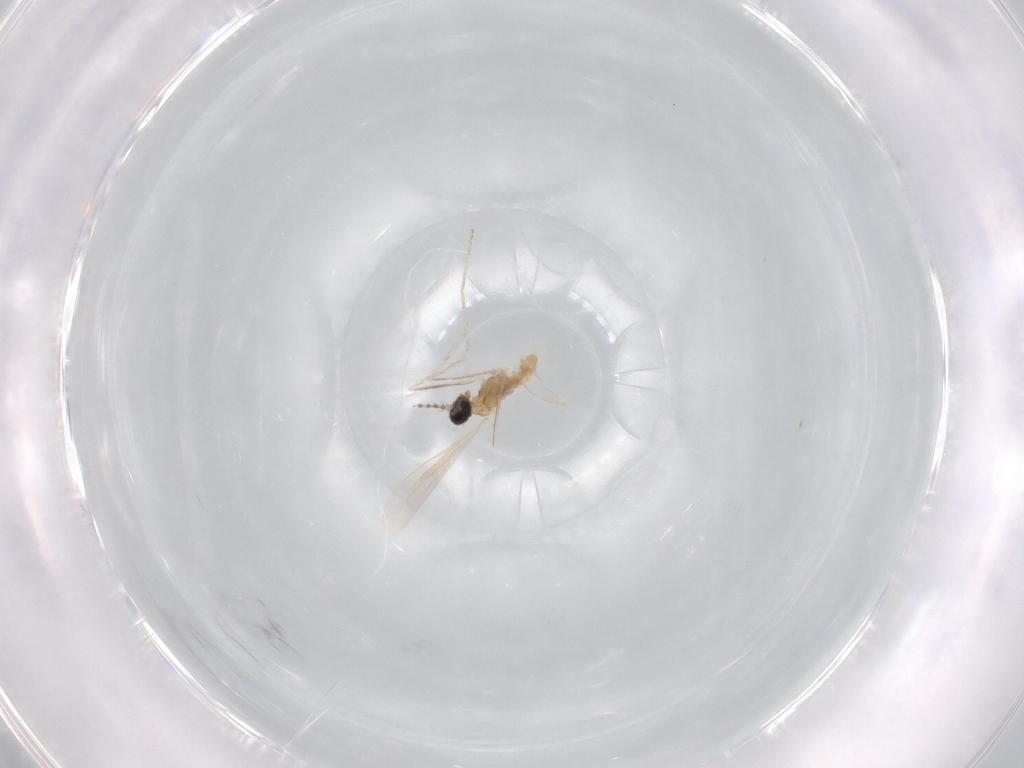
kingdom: Animalia
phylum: Arthropoda
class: Insecta
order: Diptera
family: Cecidomyiidae
